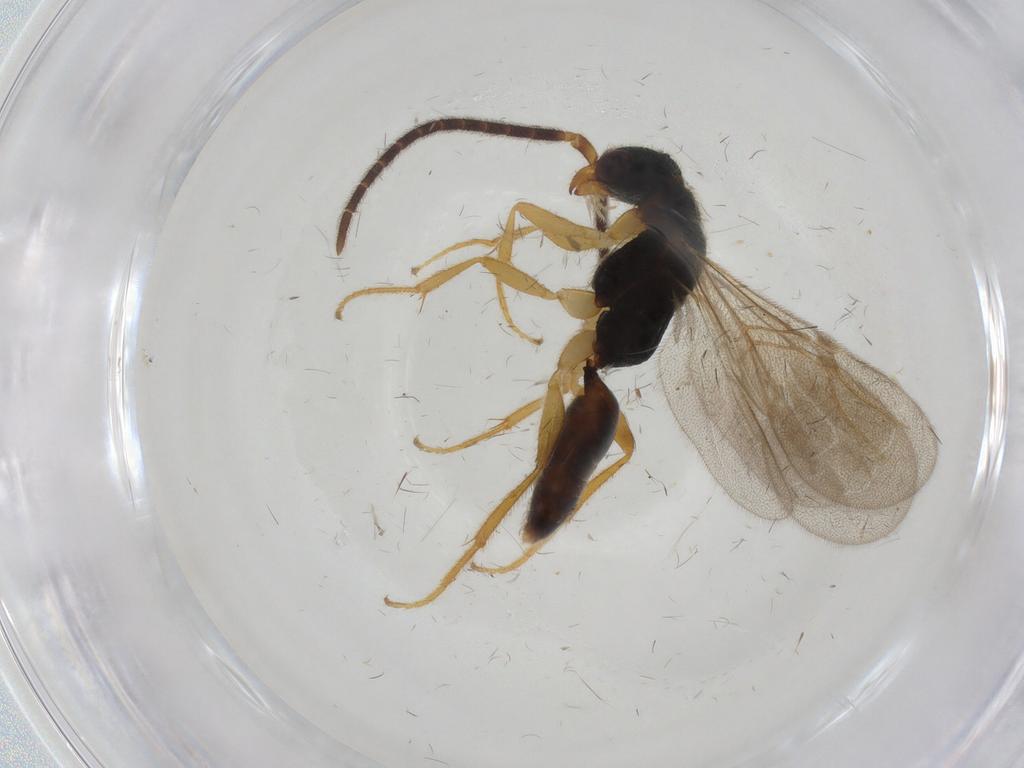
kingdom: Animalia
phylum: Arthropoda
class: Insecta
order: Hymenoptera
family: Bethylidae
